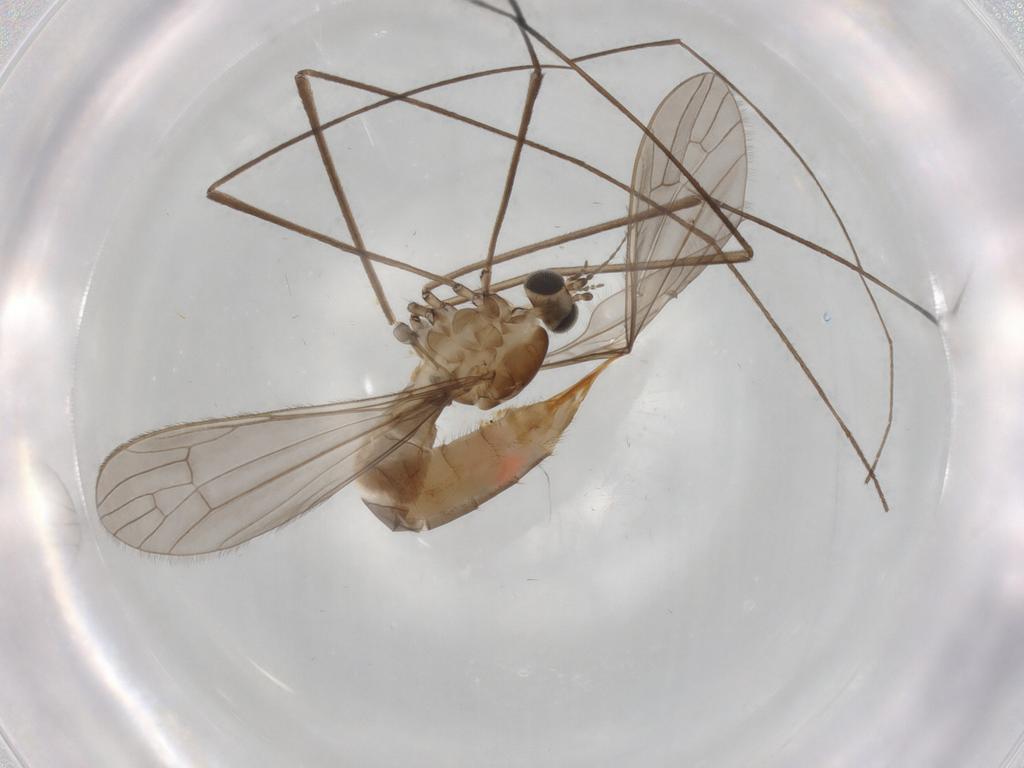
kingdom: Animalia
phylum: Arthropoda
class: Insecta
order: Diptera
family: Limoniidae
